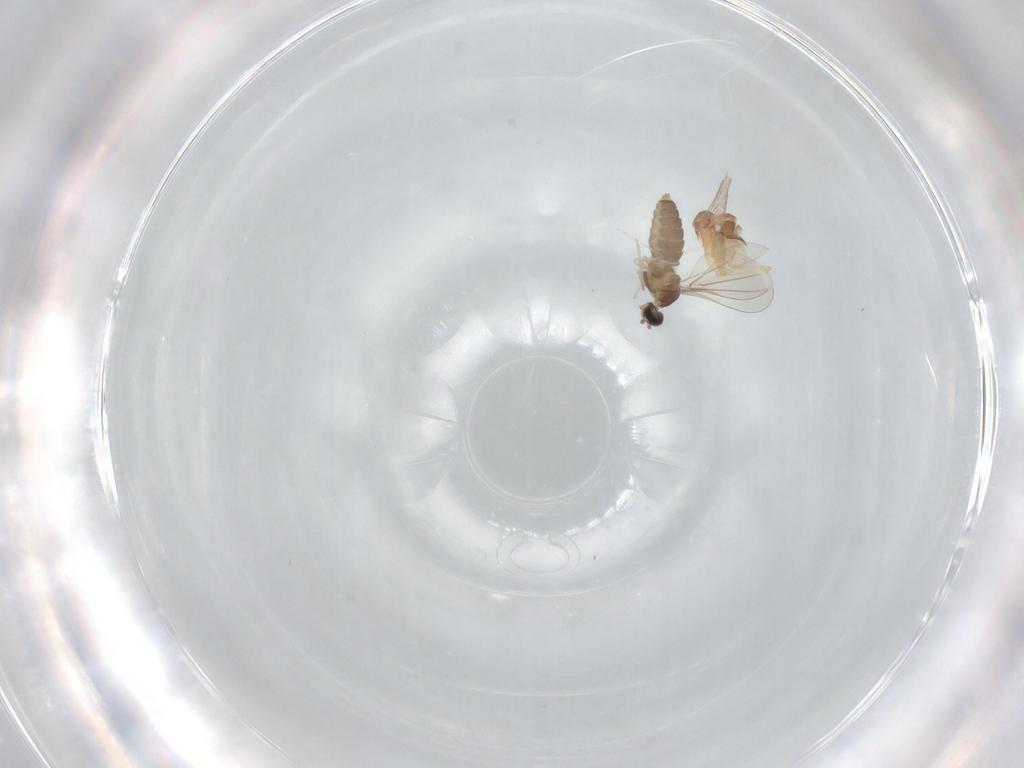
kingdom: Animalia
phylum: Arthropoda
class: Insecta
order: Diptera
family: Ceratopogonidae
